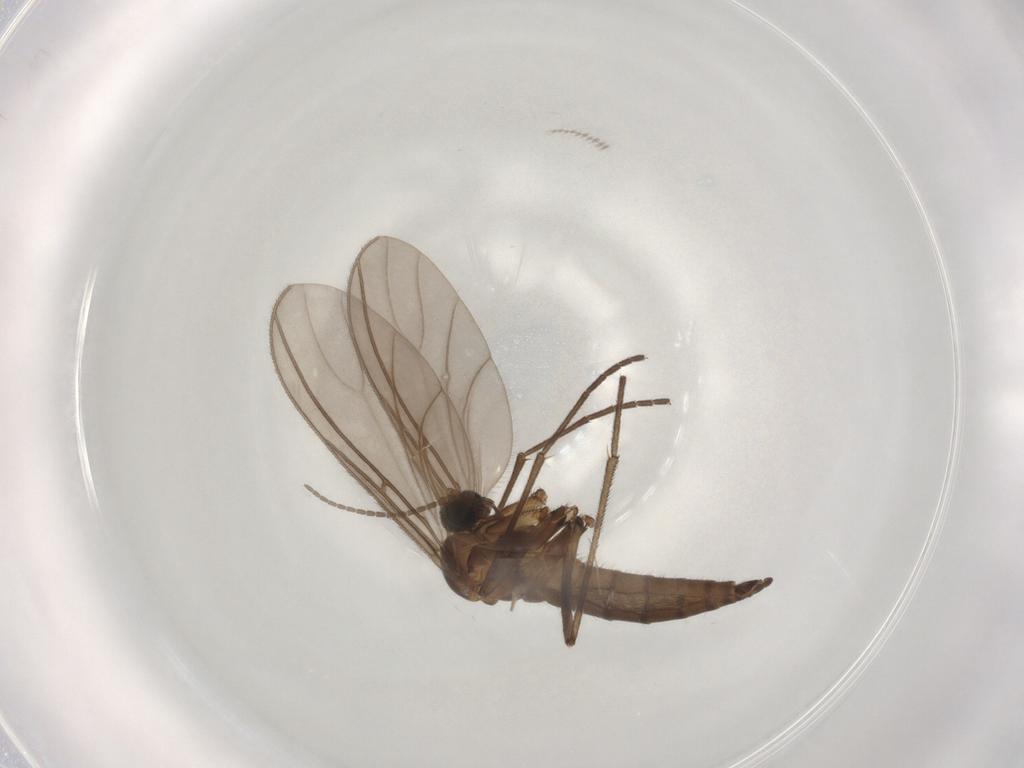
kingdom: Animalia
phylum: Arthropoda
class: Insecta
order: Diptera
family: Sciaridae
